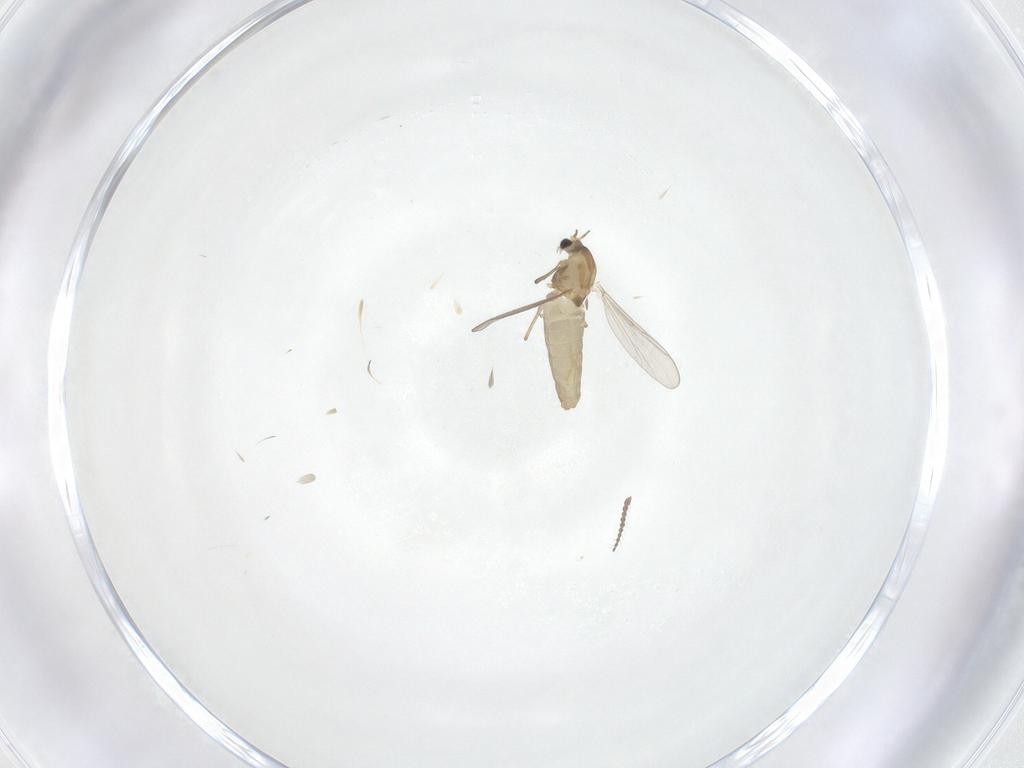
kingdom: Animalia
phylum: Arthropoda
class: Insecta
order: Diptera
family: Chironomidae
